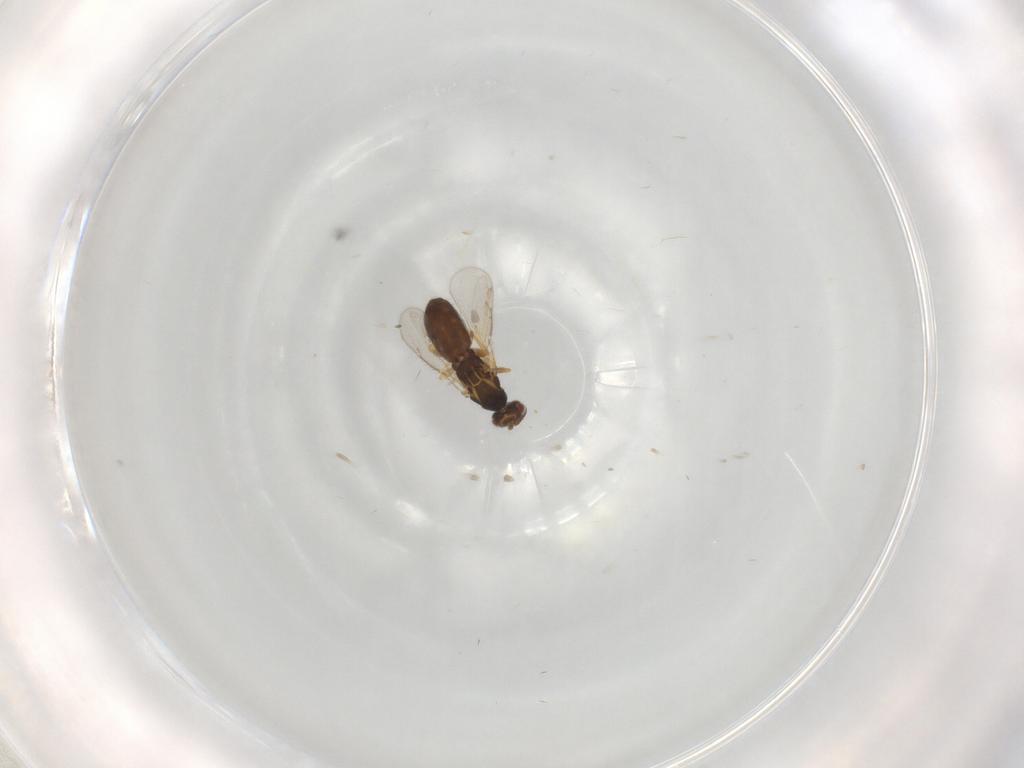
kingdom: Animalia
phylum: Arthropoda
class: Insecta
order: Hymenoptera
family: Eulophidae
